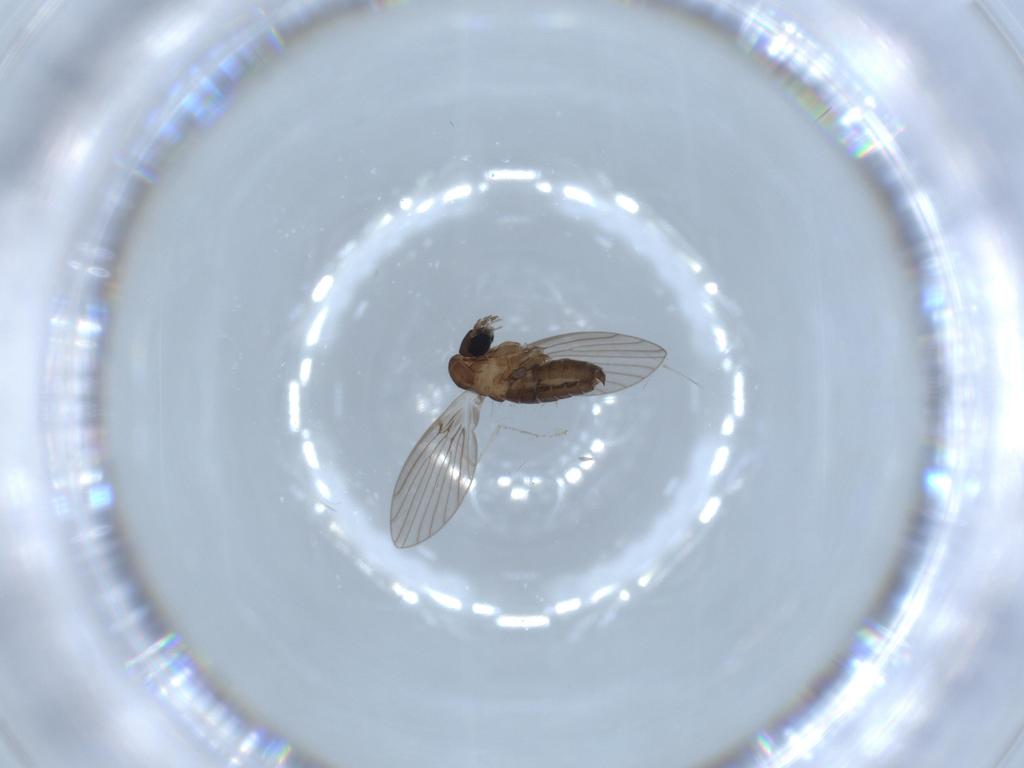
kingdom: Animalia
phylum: Arthropoda
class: Insecta
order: Diptera
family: Psychodidae
